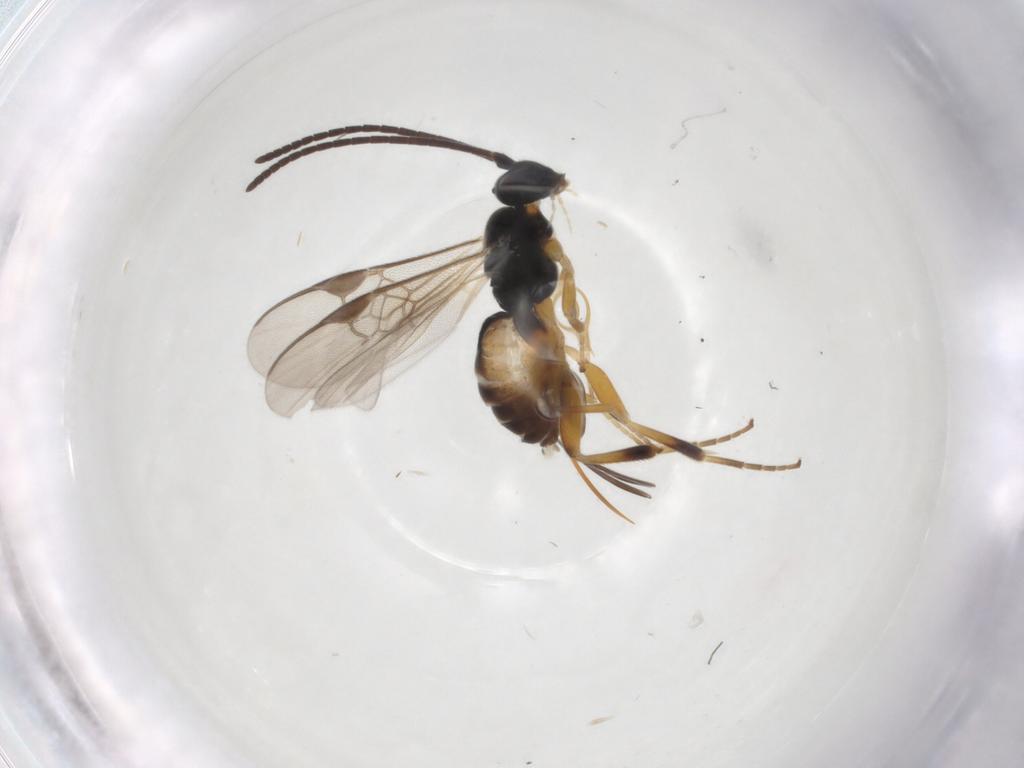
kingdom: Animalia
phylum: Arthropoda
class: Insecta
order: Hymenoptera
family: Braconidae
